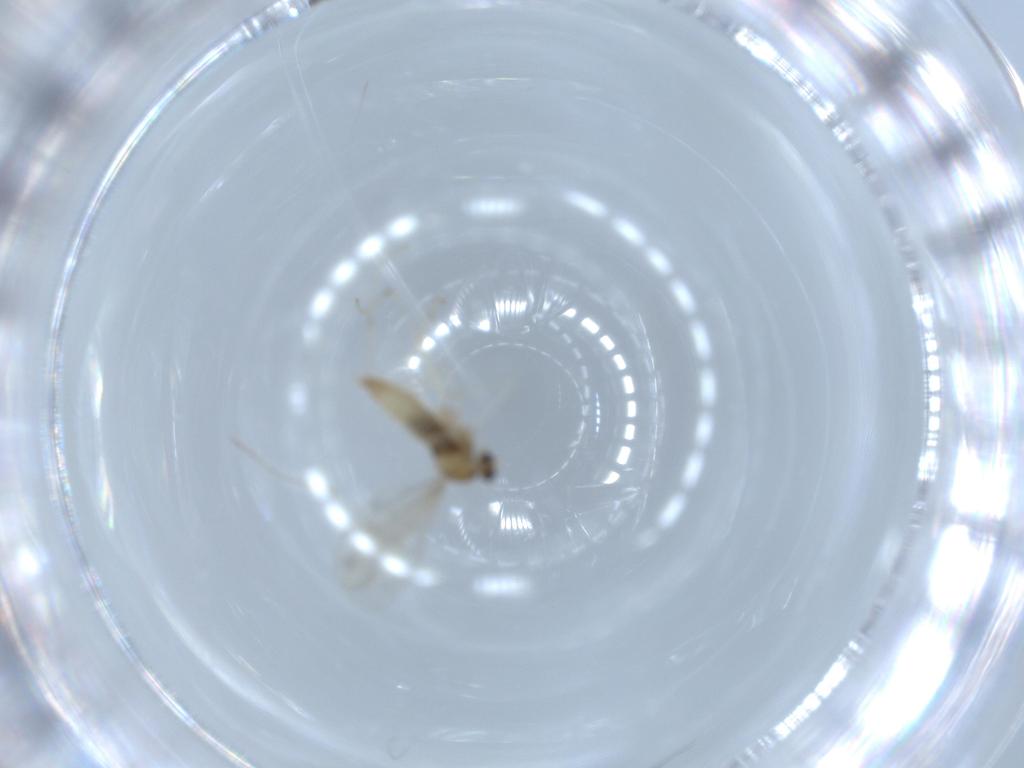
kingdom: Animalia
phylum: Arthropoda
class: Insecta
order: Diptera
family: Cecidomyiidae
